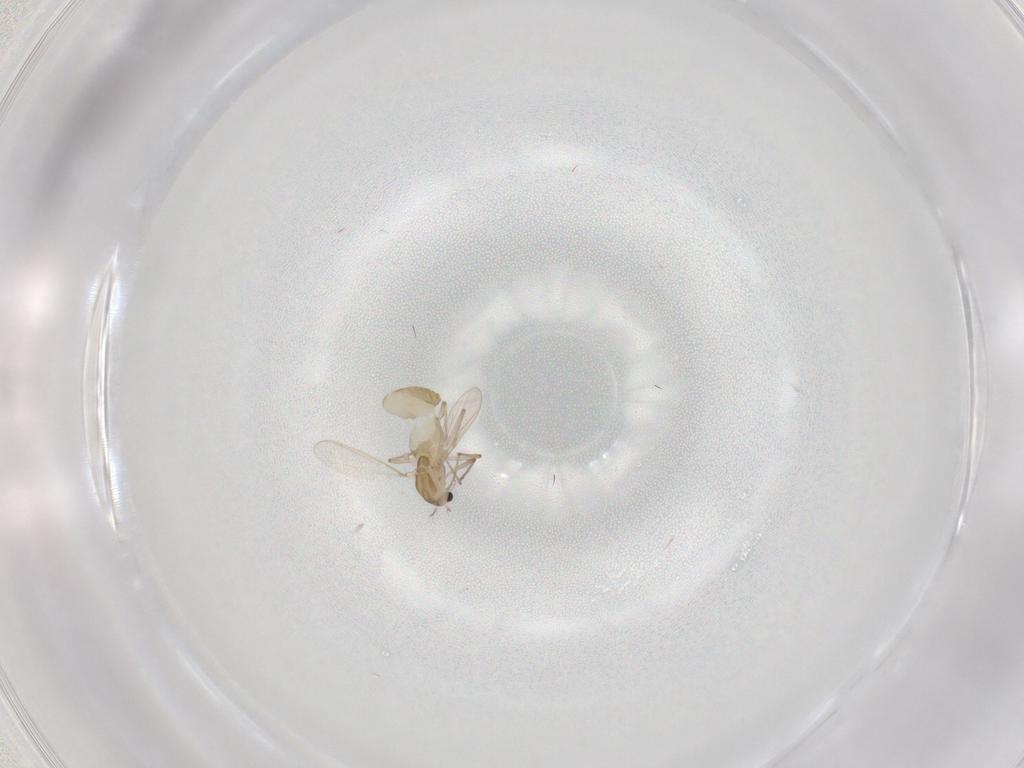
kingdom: Animalia
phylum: Arthropoda
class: Insecta
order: Diptera
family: Chironomidae
